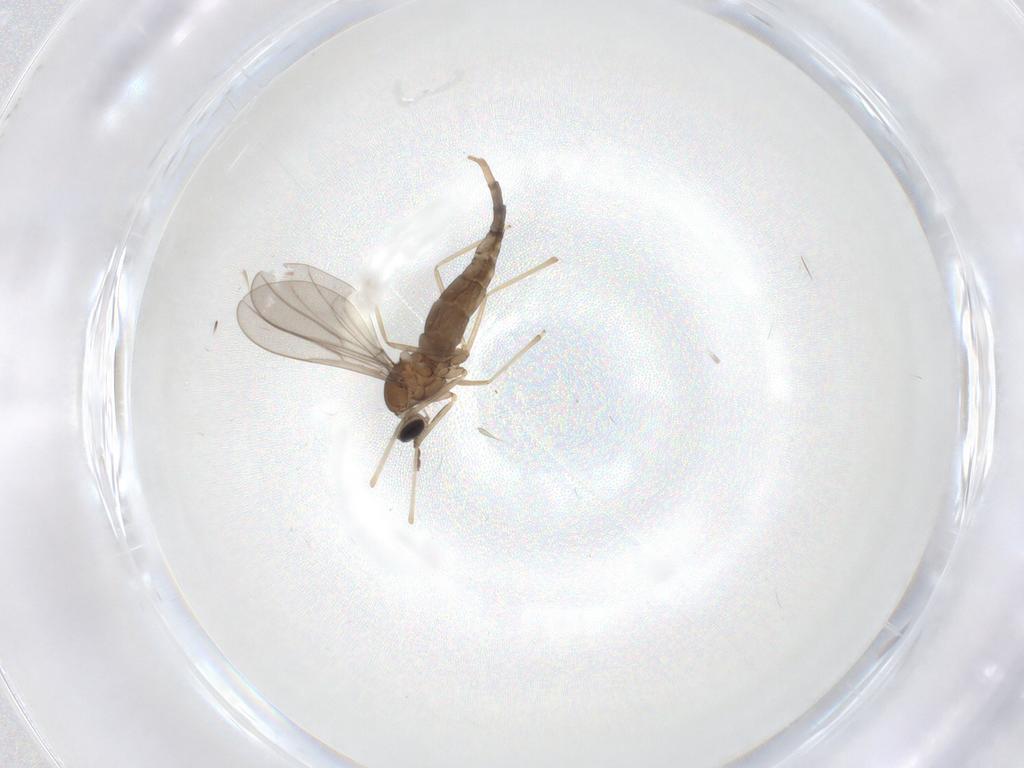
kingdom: Animalia
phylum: Arthropoda
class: Insecta
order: Diptera
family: Cecidomyiidae
